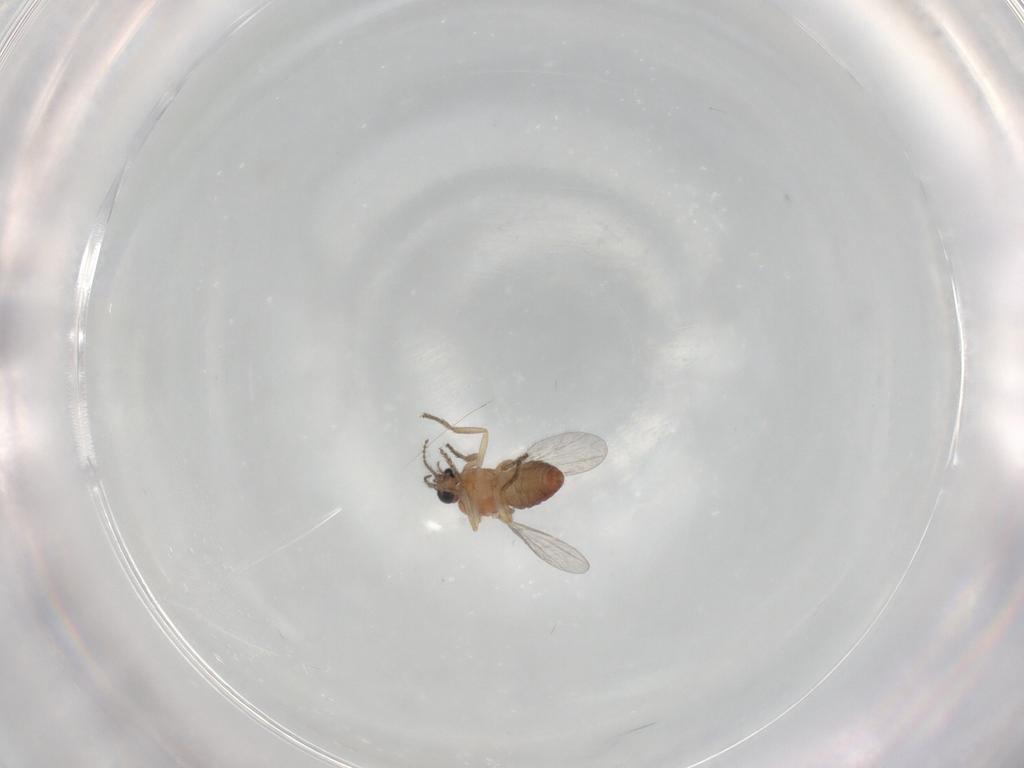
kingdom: Animalia
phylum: Arthropoda
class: Insecta
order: Diptera
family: Ceratopogonidae
